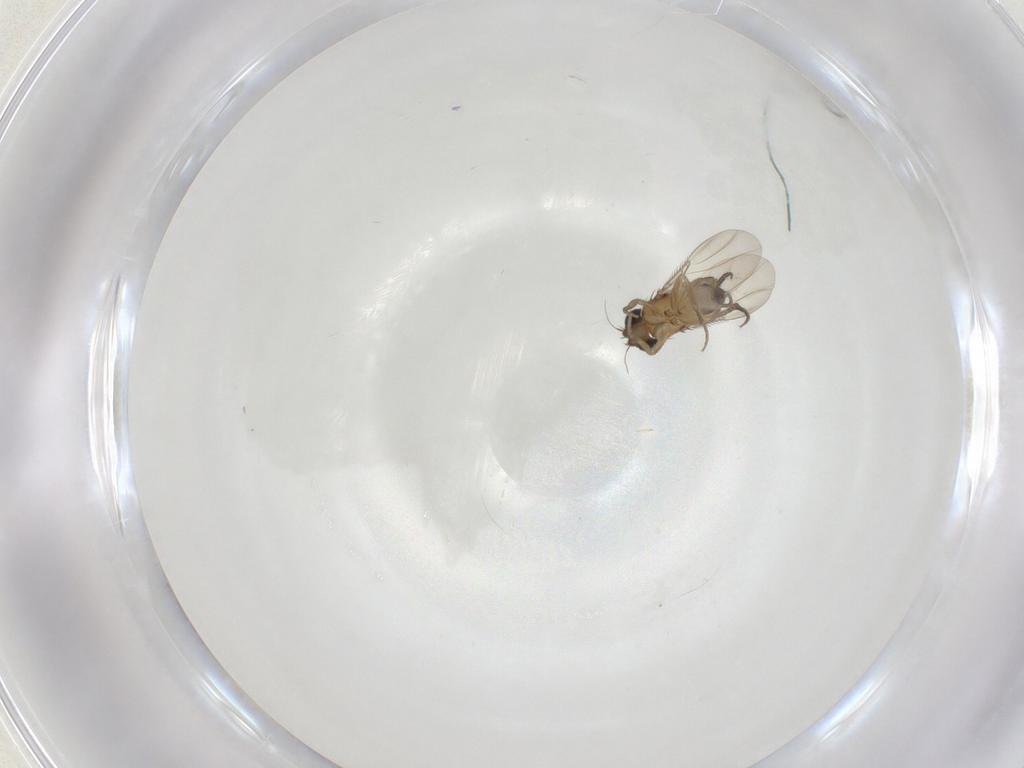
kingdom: Animalia
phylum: Arthropoda
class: Insecta
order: Diptera
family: Phoridae
